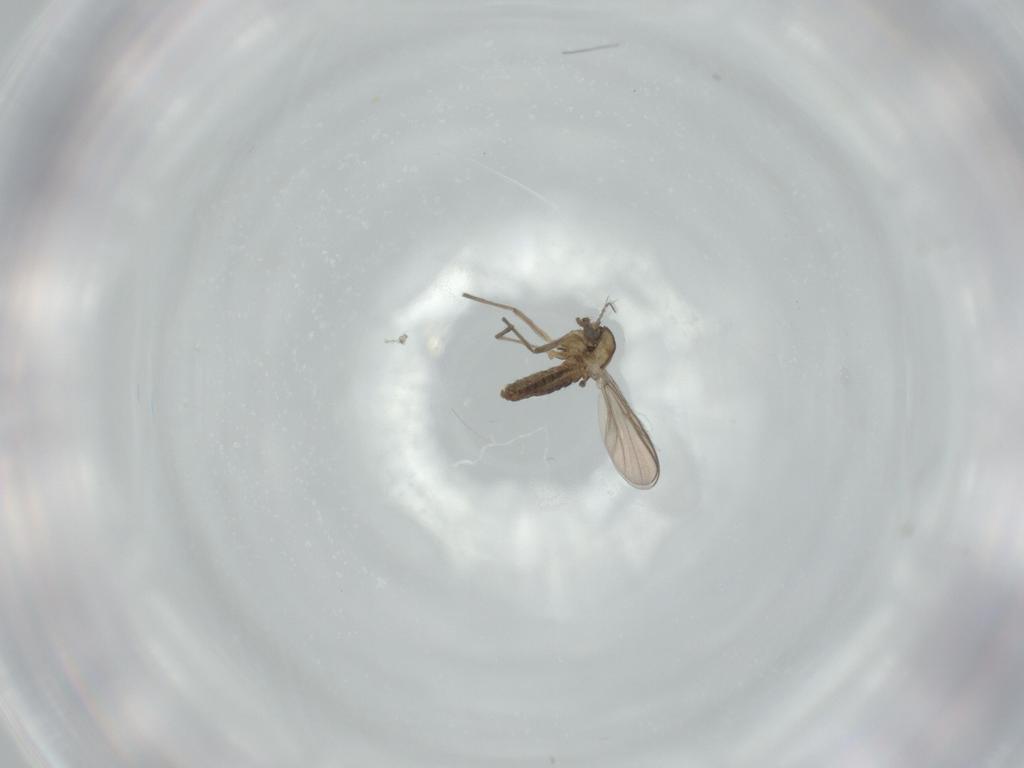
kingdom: Animalia
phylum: Arthropoda
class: Insecta
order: Diptera
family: Chironomidae
